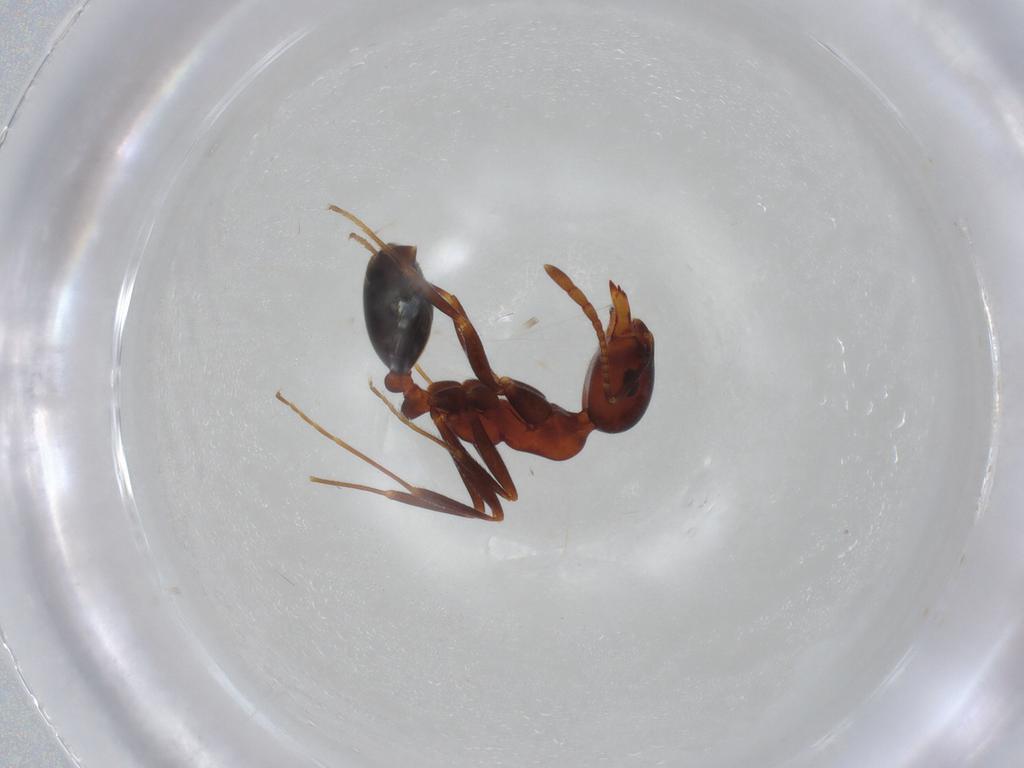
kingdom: Animalia
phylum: Arthropoda
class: Insecta
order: Hymenoptera
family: Formicidae
